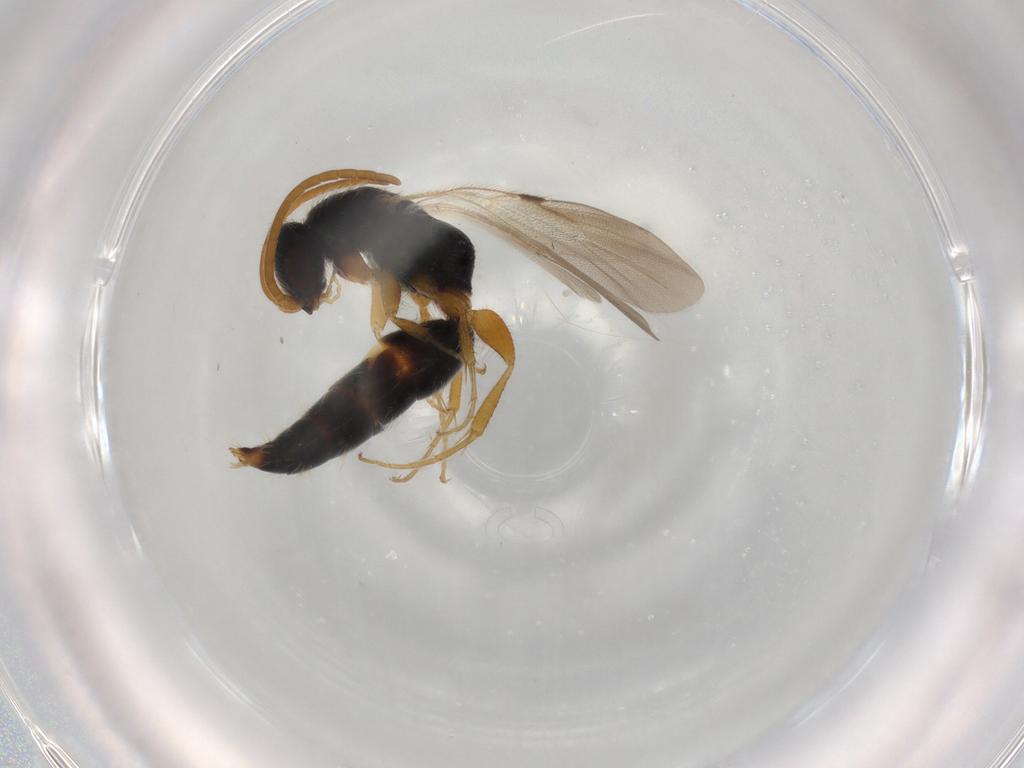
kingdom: Animalia
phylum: Arthropoda
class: Insecta
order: Hymenoptera
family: Bethylidae
